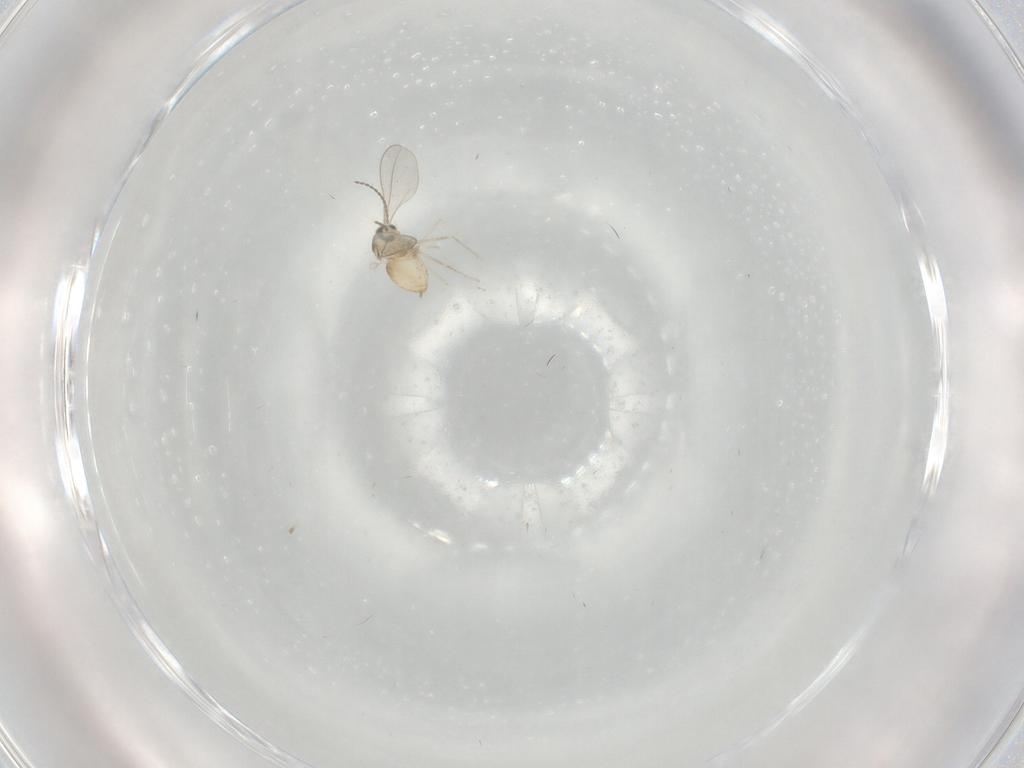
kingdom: Animalia
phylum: Arthropoda
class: Insecta
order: Diptera
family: Cecidomyiidae
